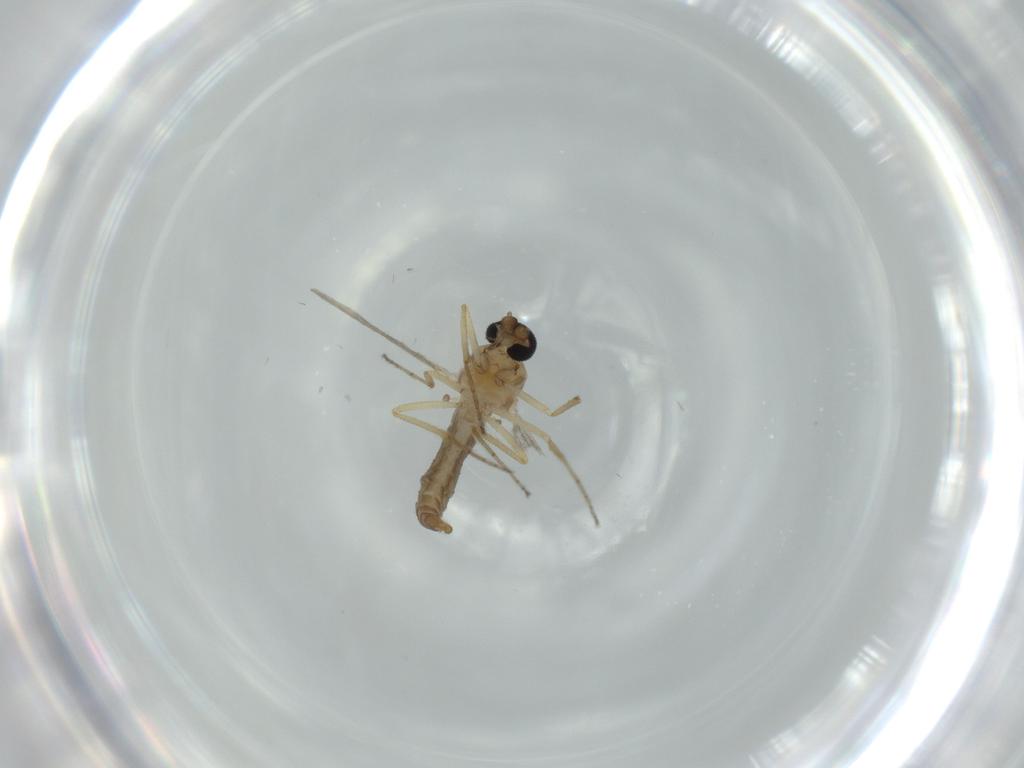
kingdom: Animalia
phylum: Arthropoda
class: Insecta
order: Diptera
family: Ceratopogonidae
